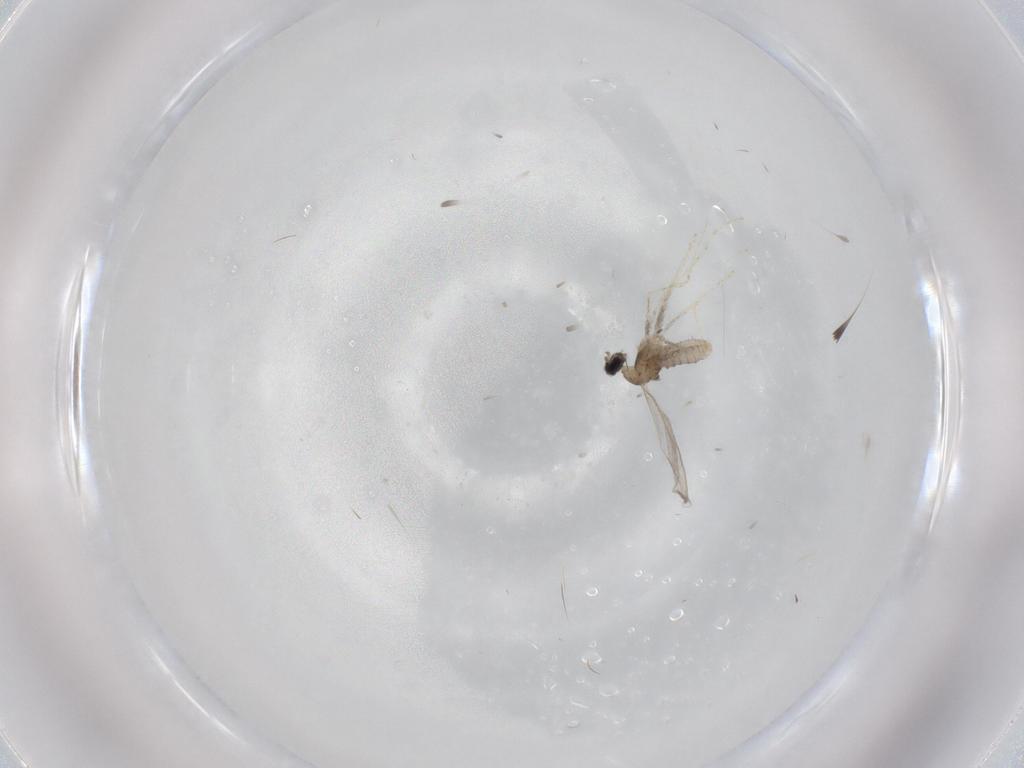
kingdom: Animalia
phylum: Arthropoda
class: Insecta
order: Diptera
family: Cecidomyiidae
